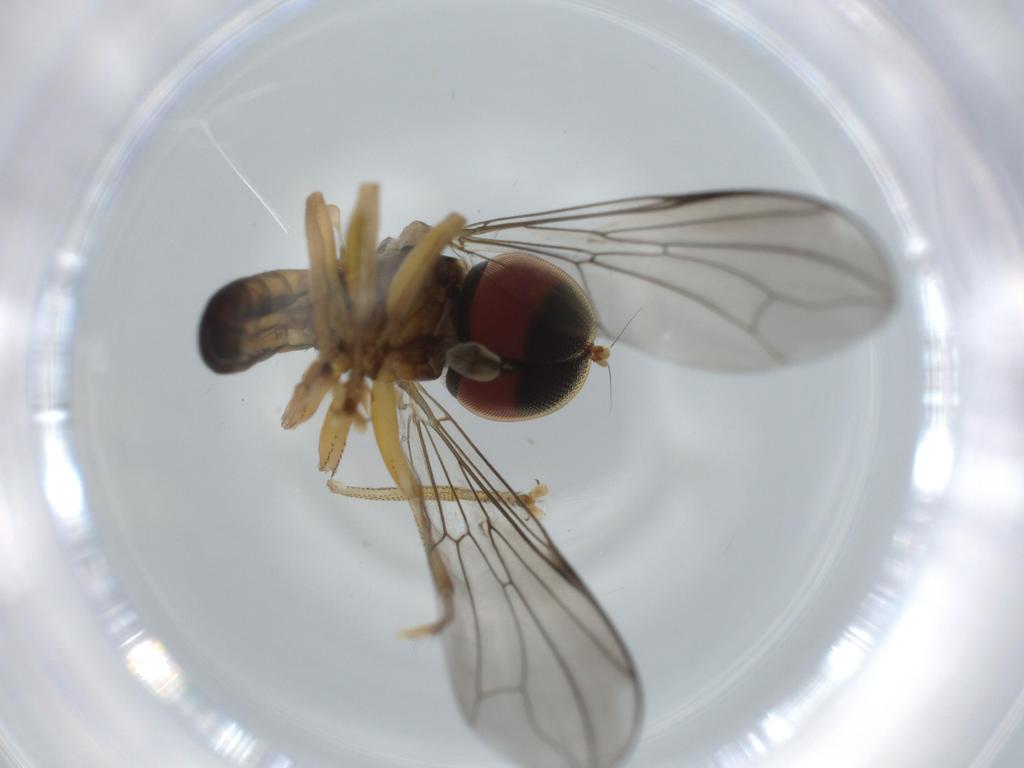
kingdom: Animalia
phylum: Arthropoda
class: Insecta
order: Diptera
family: Pipunculidae
